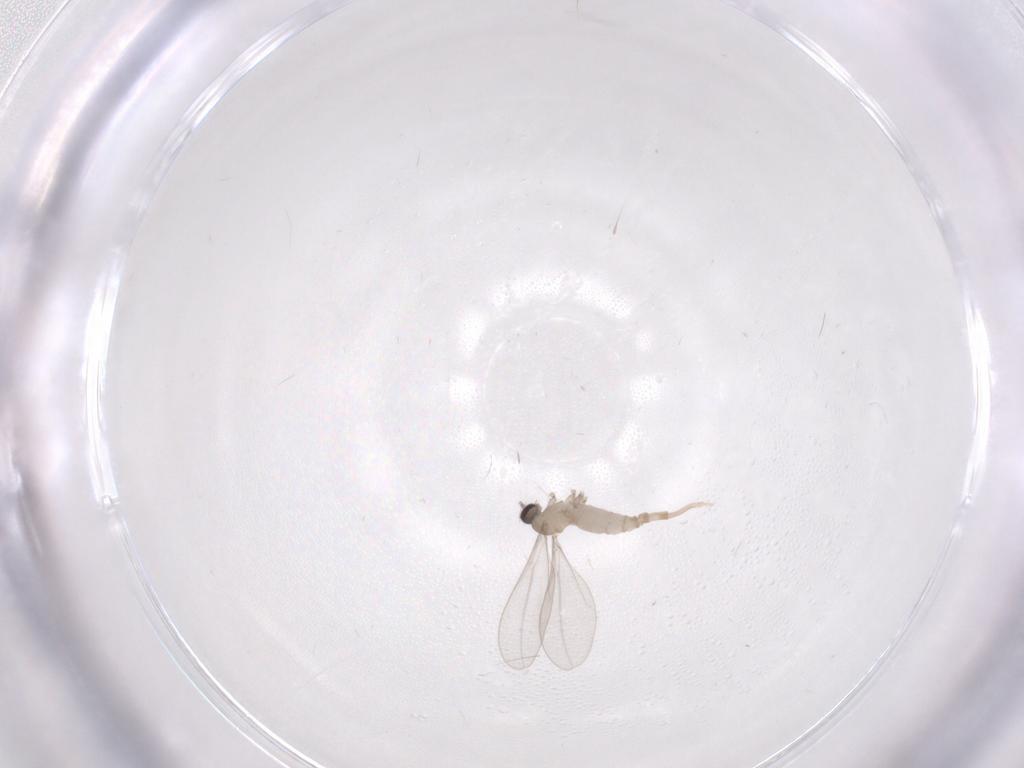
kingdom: Animalia
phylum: Arthropoda
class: Insecta
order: Diptera
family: Cecidomyiidae
